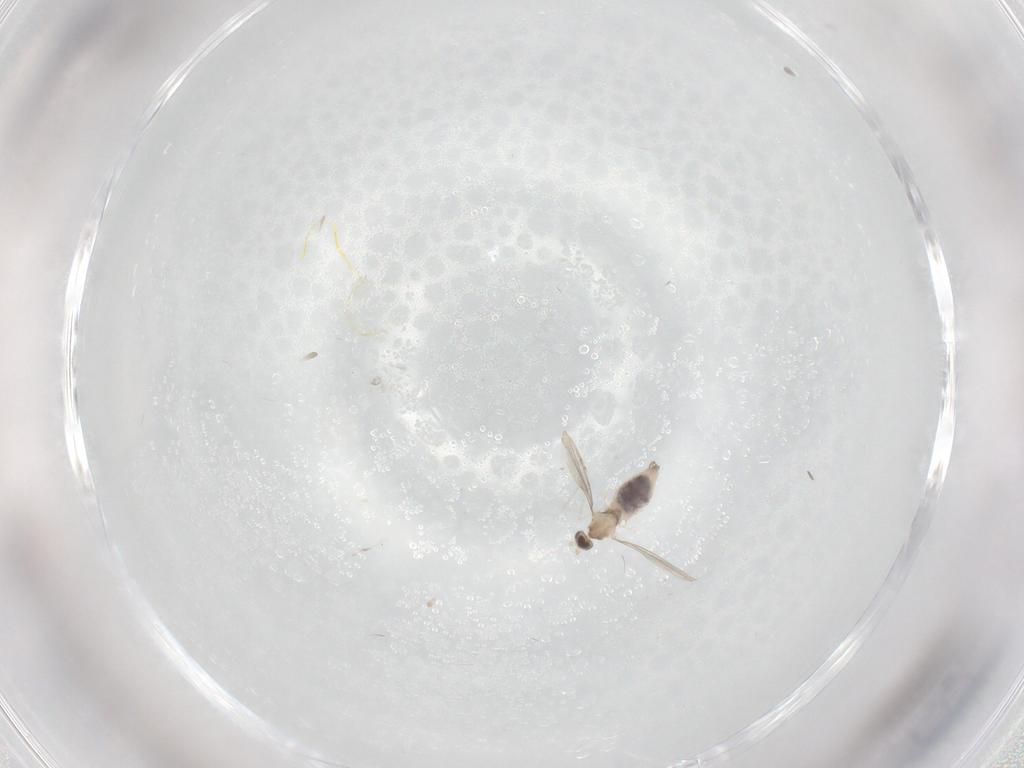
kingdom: Animalia
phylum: Arthropoda
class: Insecta
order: Diptera
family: Cecidomyiidae
